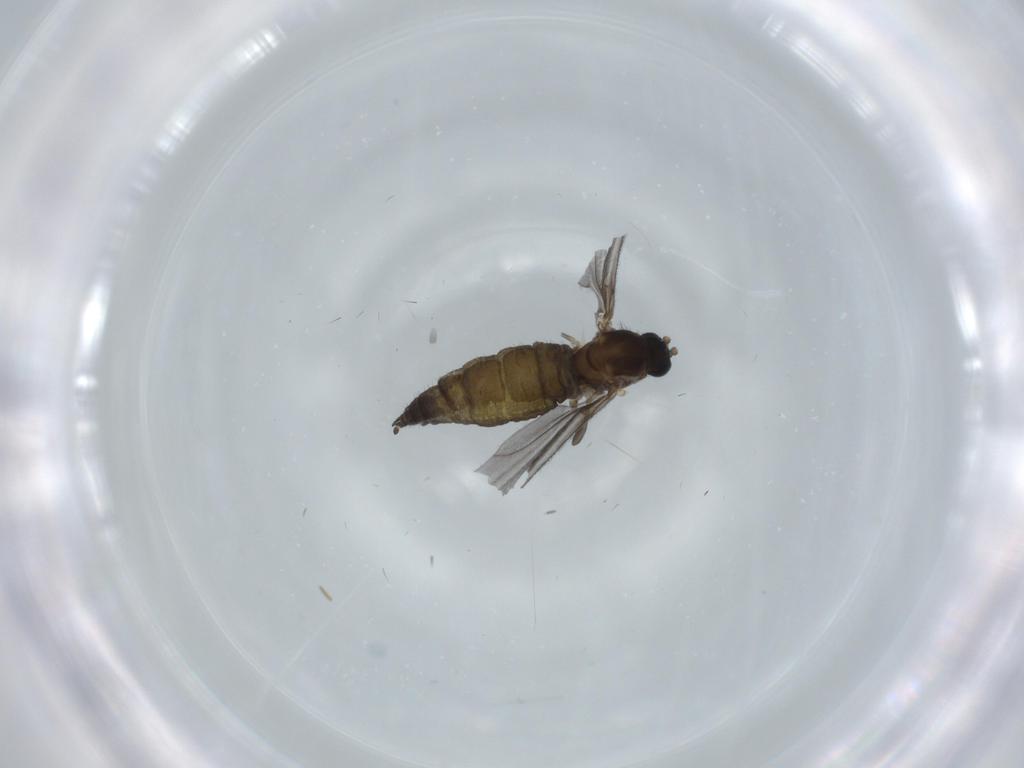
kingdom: Animalia
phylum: Arthropoda
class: Insecta
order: Diptera
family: Sciaridae
